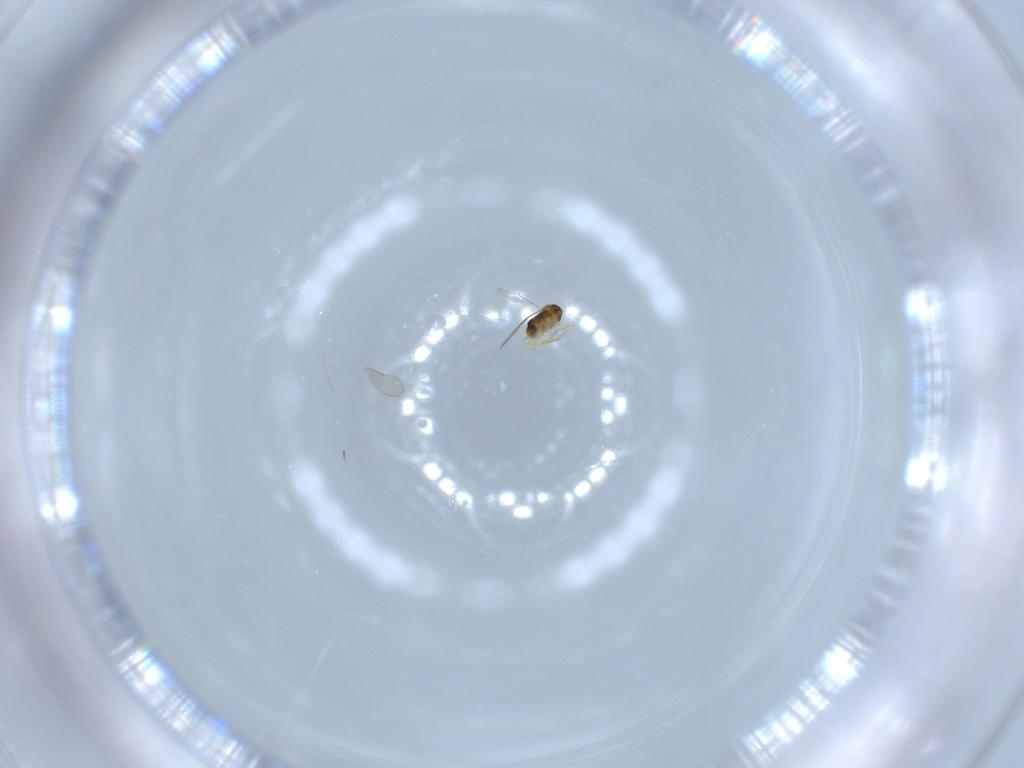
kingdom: Animalia
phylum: Arthropoda
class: Insecta
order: Hymenoptera
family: Aphelinidae
